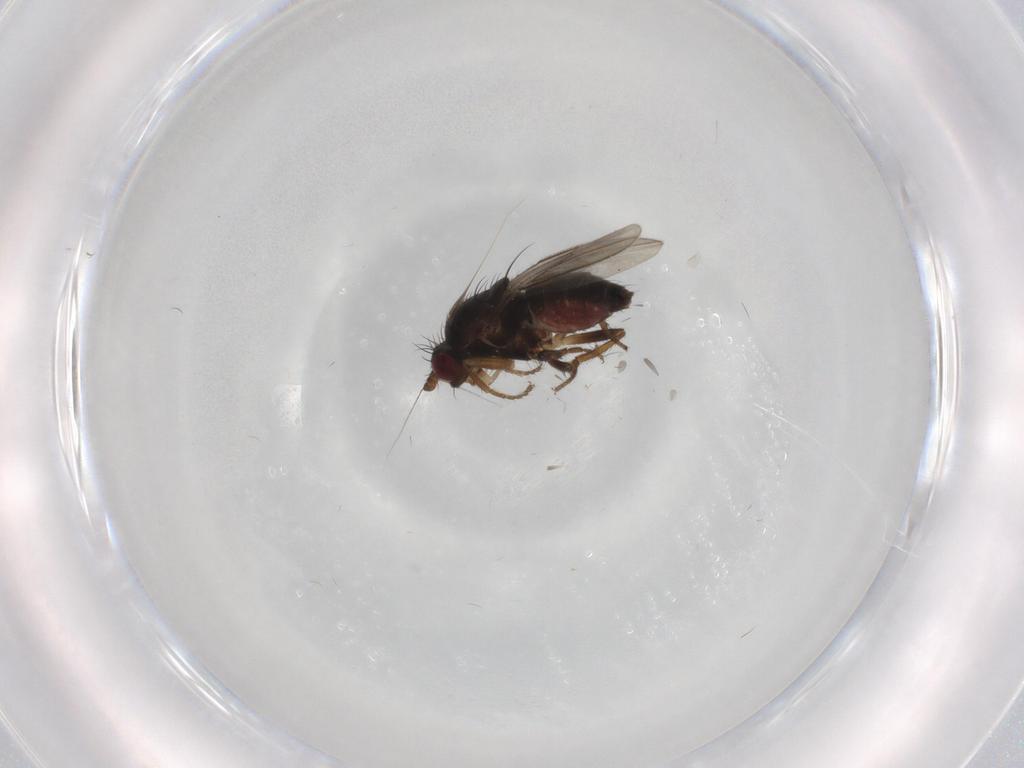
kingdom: Animalia
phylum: Arthropoda
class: Insecta
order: Diptera
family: Sphaeroceridae
